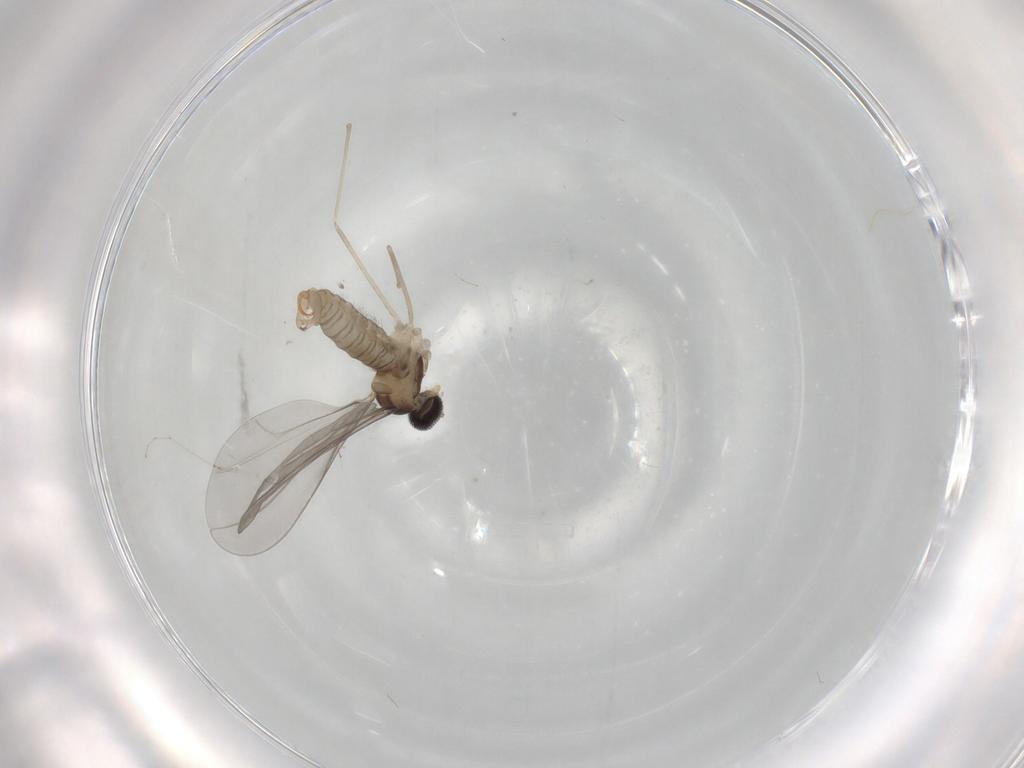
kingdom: Animalia
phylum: Arthropoda
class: Insecta
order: Diptera
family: Cecidomyiidae
